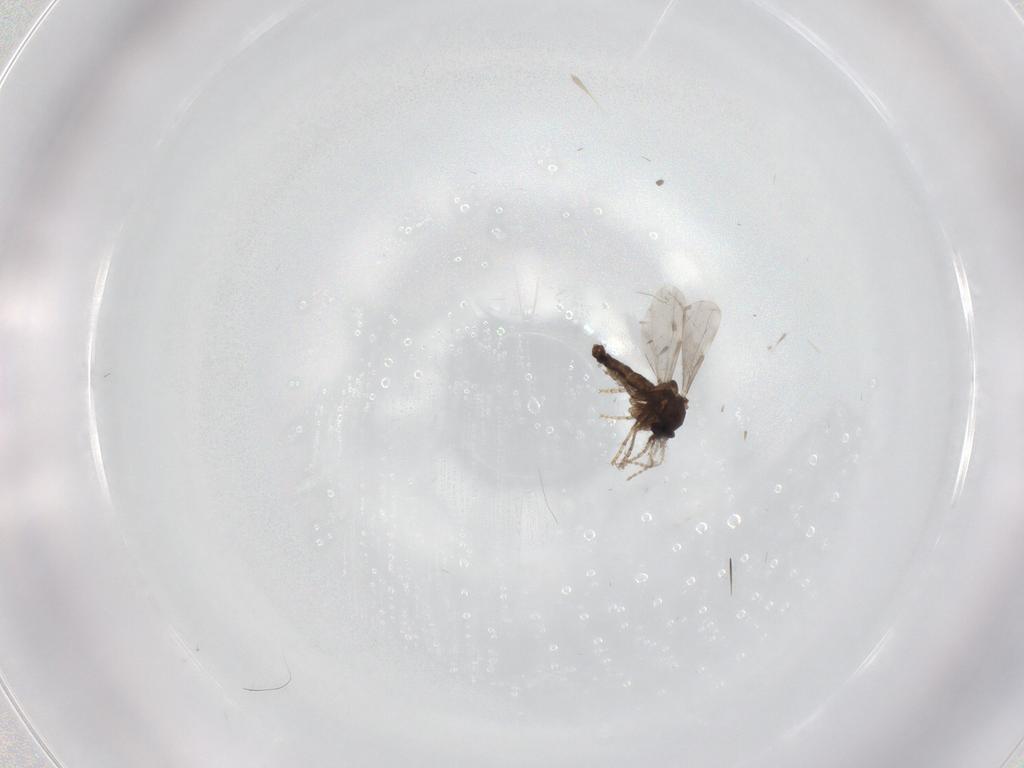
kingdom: Animalia
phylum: Arthropoda
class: Insecta
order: Diptera
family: Ceratopogonidae
